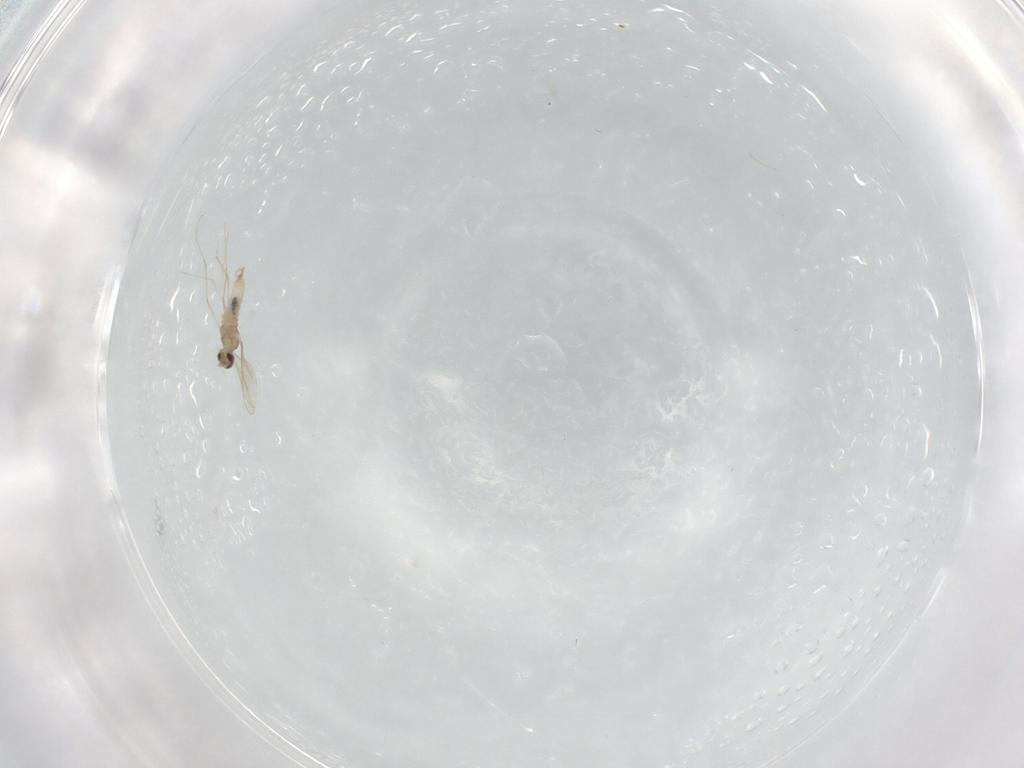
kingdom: Animalia
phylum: Arthropoda
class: Insecta
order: Diptera
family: Cecidomyiidae
